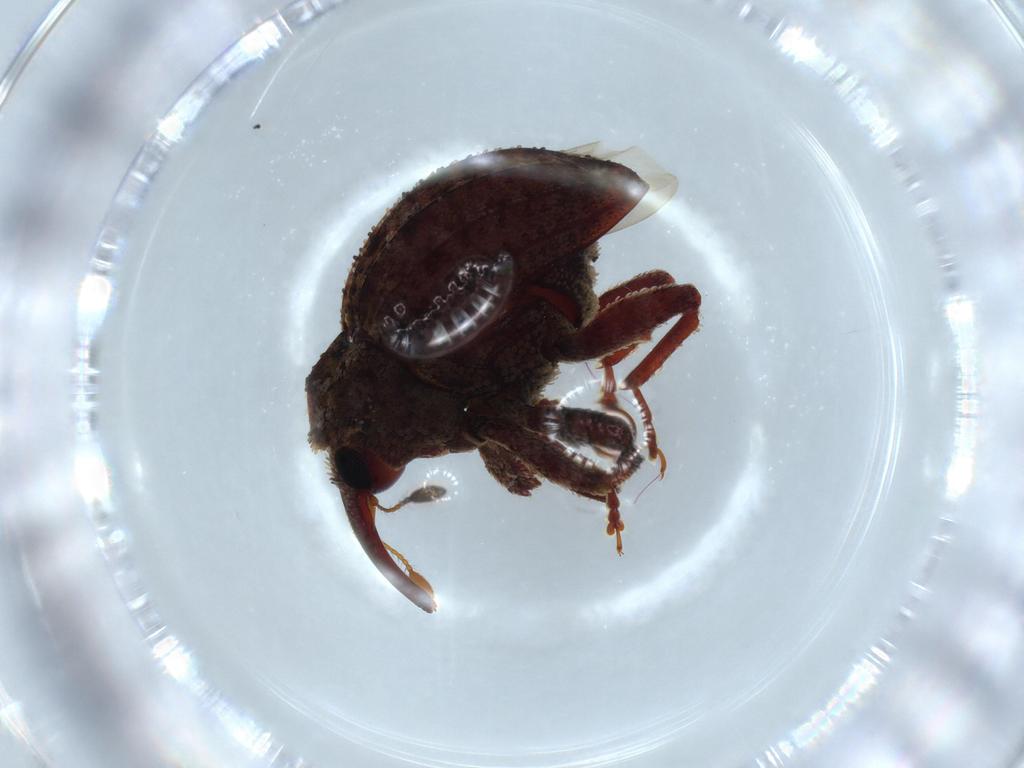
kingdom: Animalia
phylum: Arthropoda
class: Insecta
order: Coleoptera
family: Curculionidae
